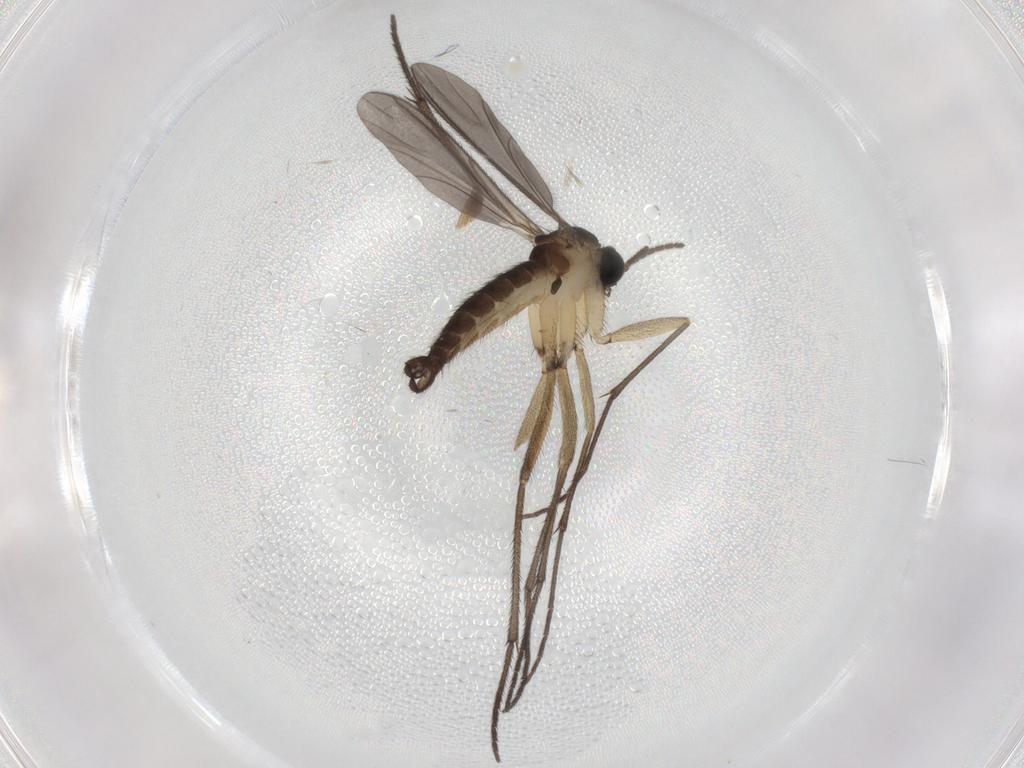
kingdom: Animalia
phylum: Arthropoda
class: Insecta
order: Diptera
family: Sciaridae
